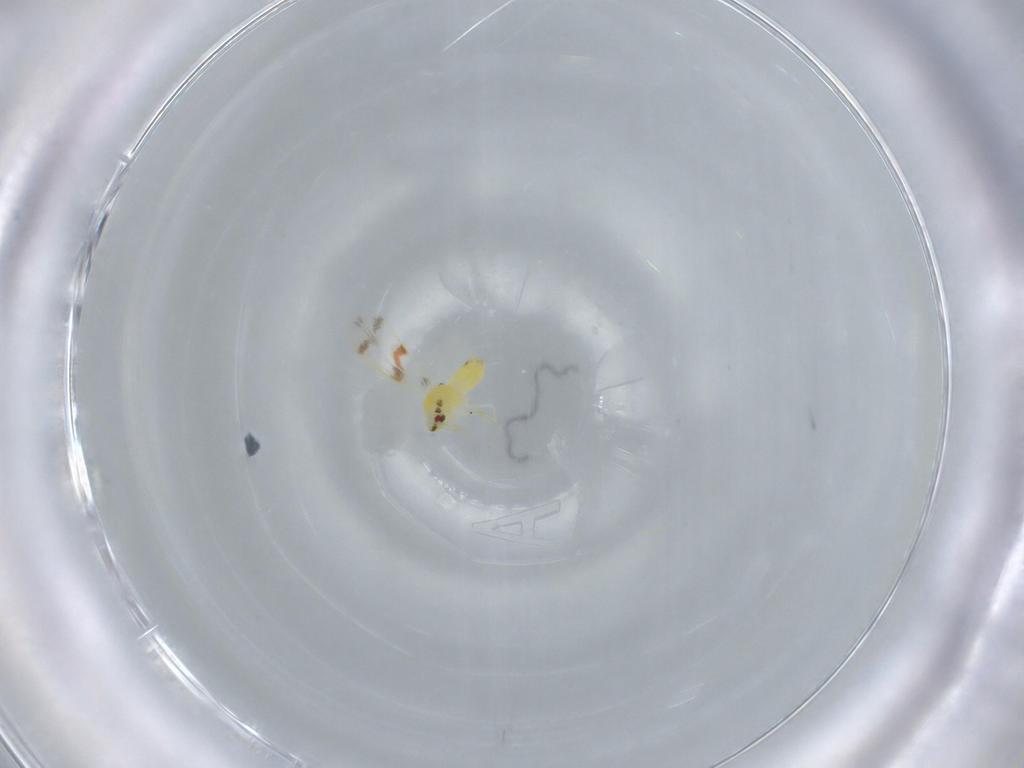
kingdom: Animalia
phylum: Arthropoda
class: Insecta
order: Hemiptera
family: Aleyrodidae
